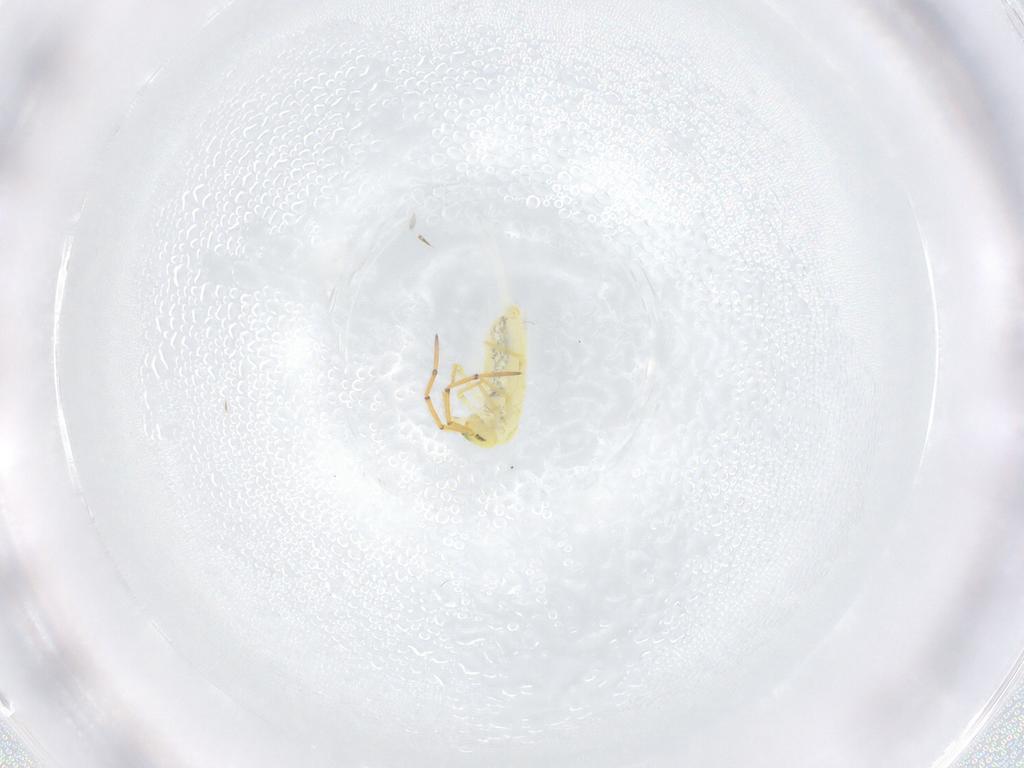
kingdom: Animalia
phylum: Arthropoda
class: Collembola
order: Entomobryomorpha
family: Paronellidae
